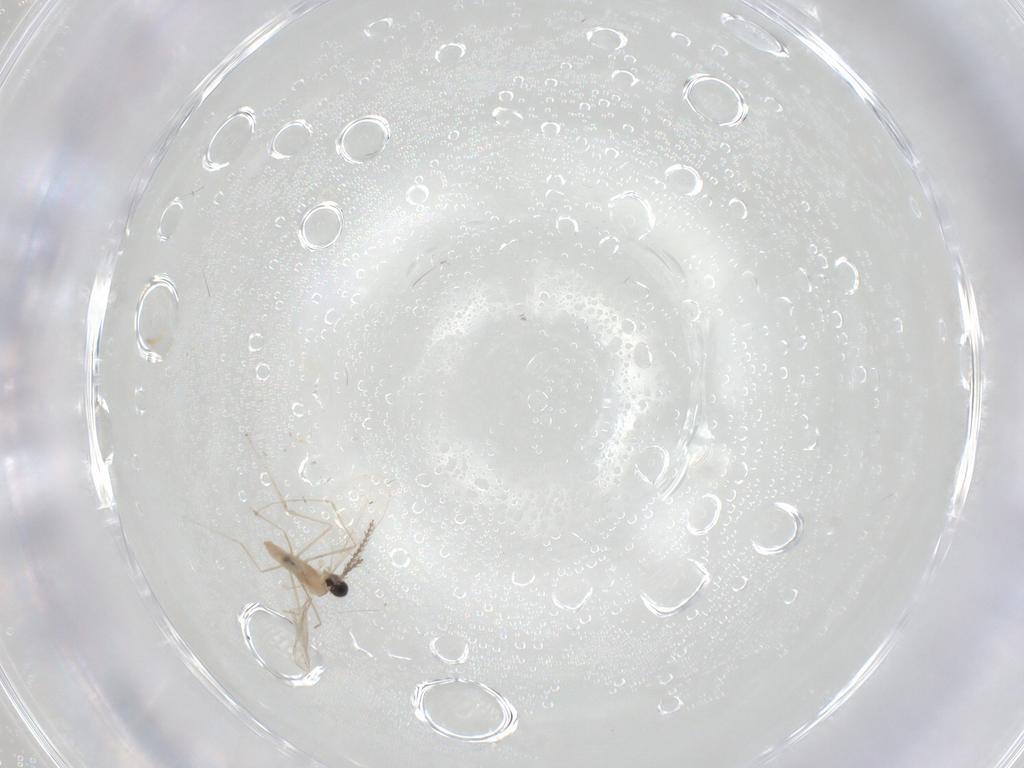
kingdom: Animalia
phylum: Arthropoda
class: Insecta
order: Diptera
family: Cecidomyiidae
